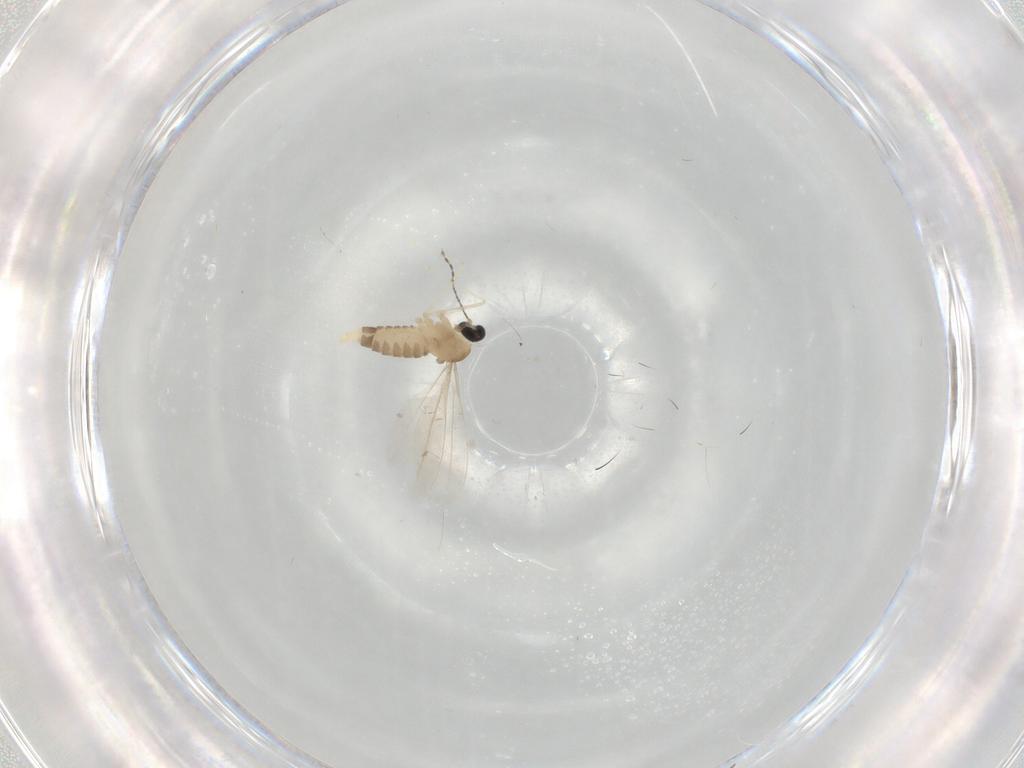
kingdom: Animalia
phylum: Arthropoda
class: Insecta
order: Diptera
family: Cecidomyiidae
